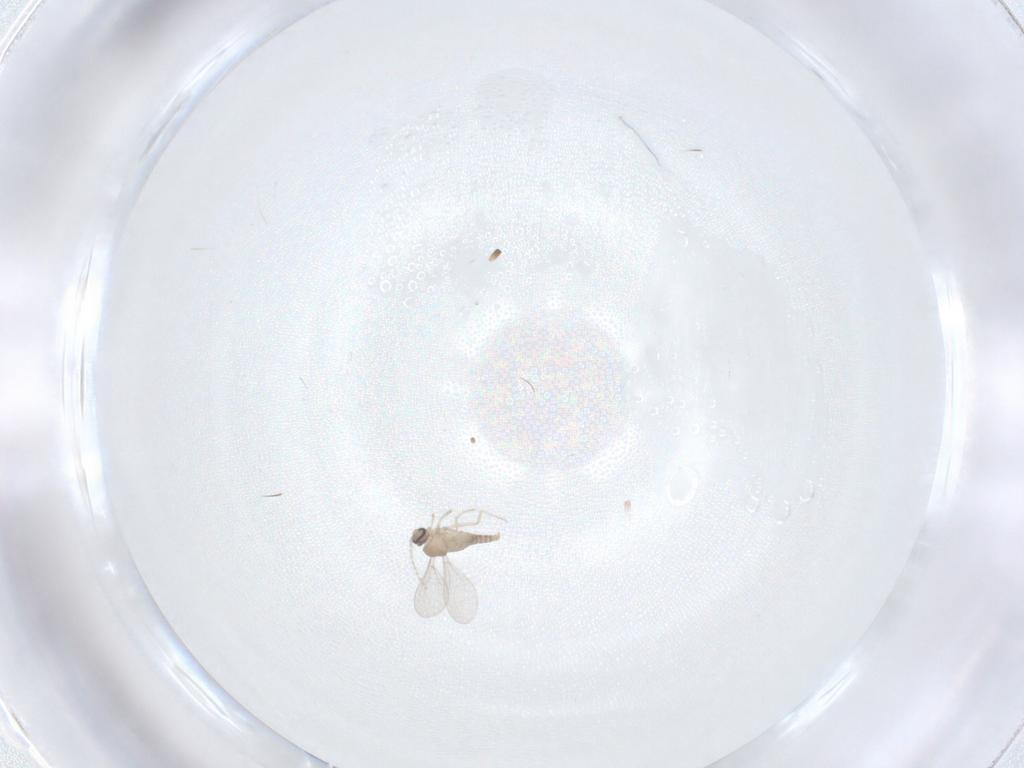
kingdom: Animalia
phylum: Arthropoda
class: Insecta
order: Diptera
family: Cecidomyiidae
